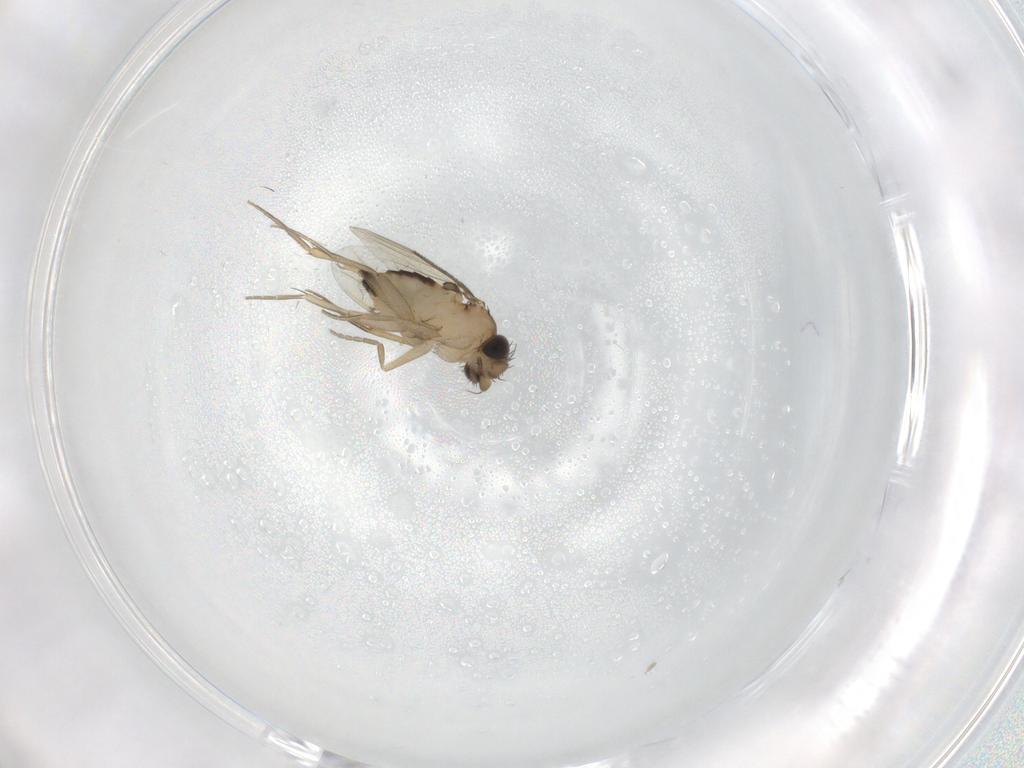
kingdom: Animalia
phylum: Arthropoda
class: Insecta
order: Diptera
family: Phoridae
